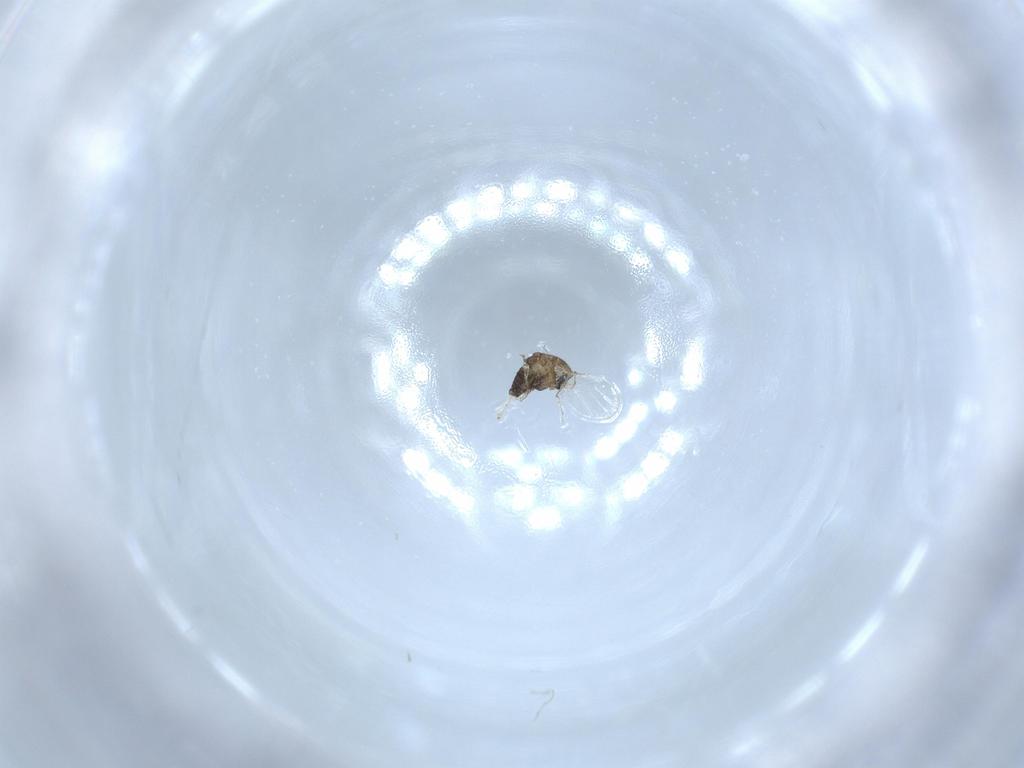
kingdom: Animalia
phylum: Arthropoda
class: Insecta
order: Diptera
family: Chironomidae
